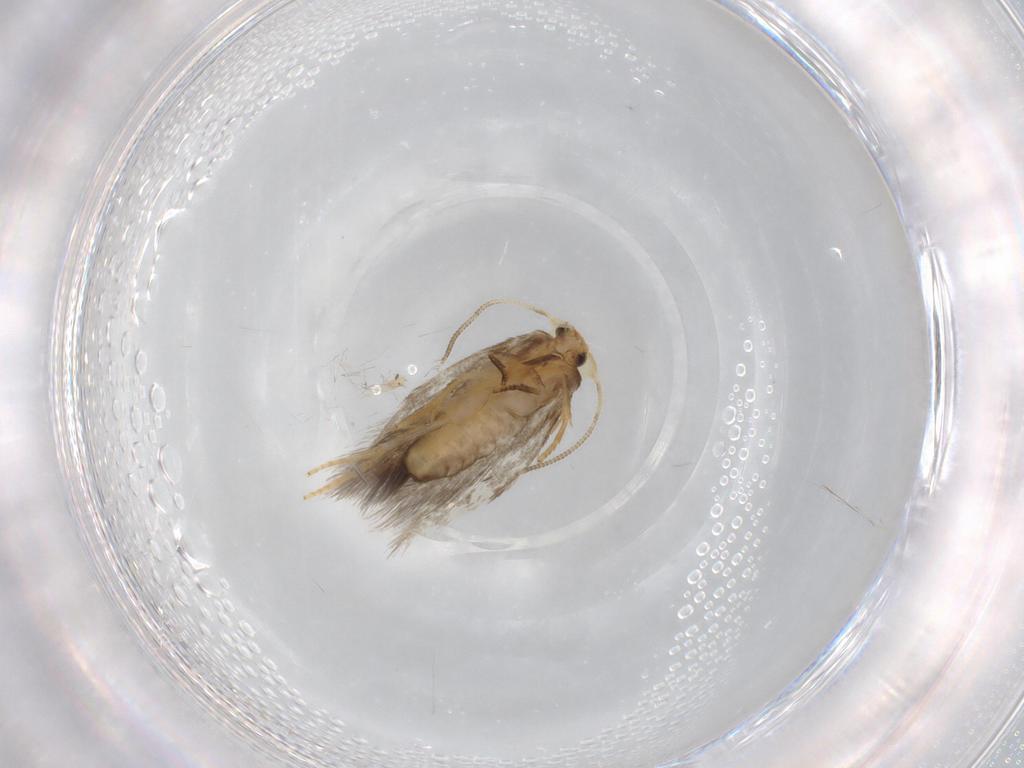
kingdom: Animalia
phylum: Arthropoda
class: Insecta
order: Lepidoptera
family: Nepticulidae
